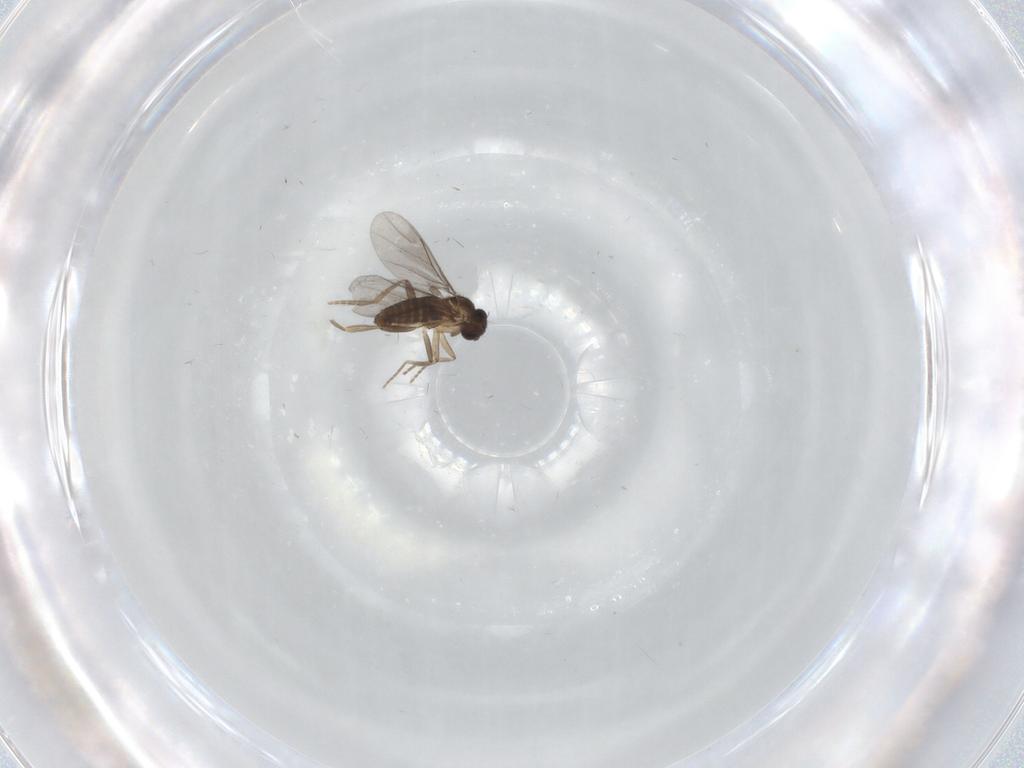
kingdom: Animalia
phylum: Arthropoda
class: Insecta
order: Diptera
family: Phoridae
